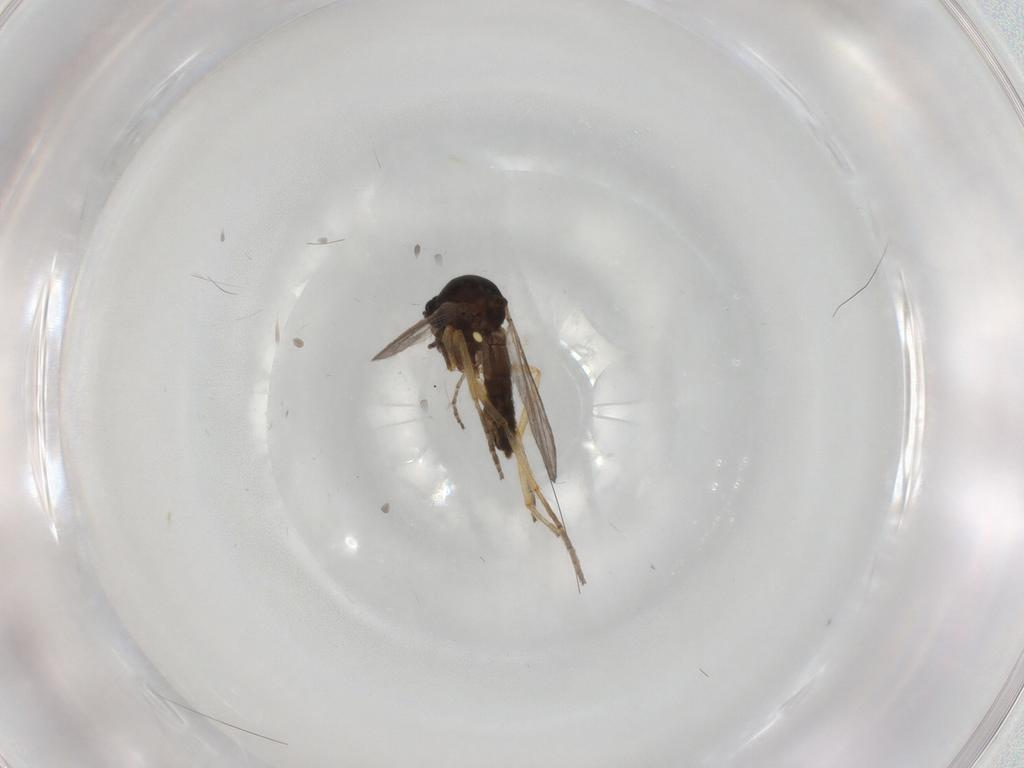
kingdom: Animalia
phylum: Arthropoda
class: Insecta
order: Diptera
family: Ceratopogonidae
